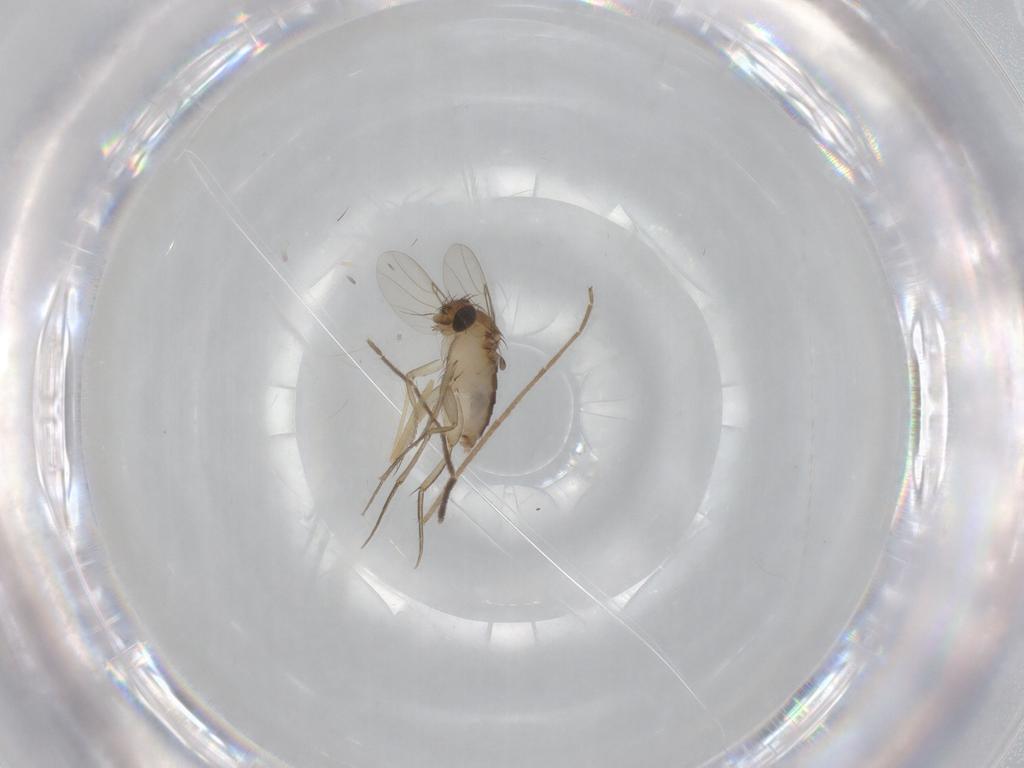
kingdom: Animalia
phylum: Arthropoda
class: Insecta
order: Diptera
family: Phoridae
